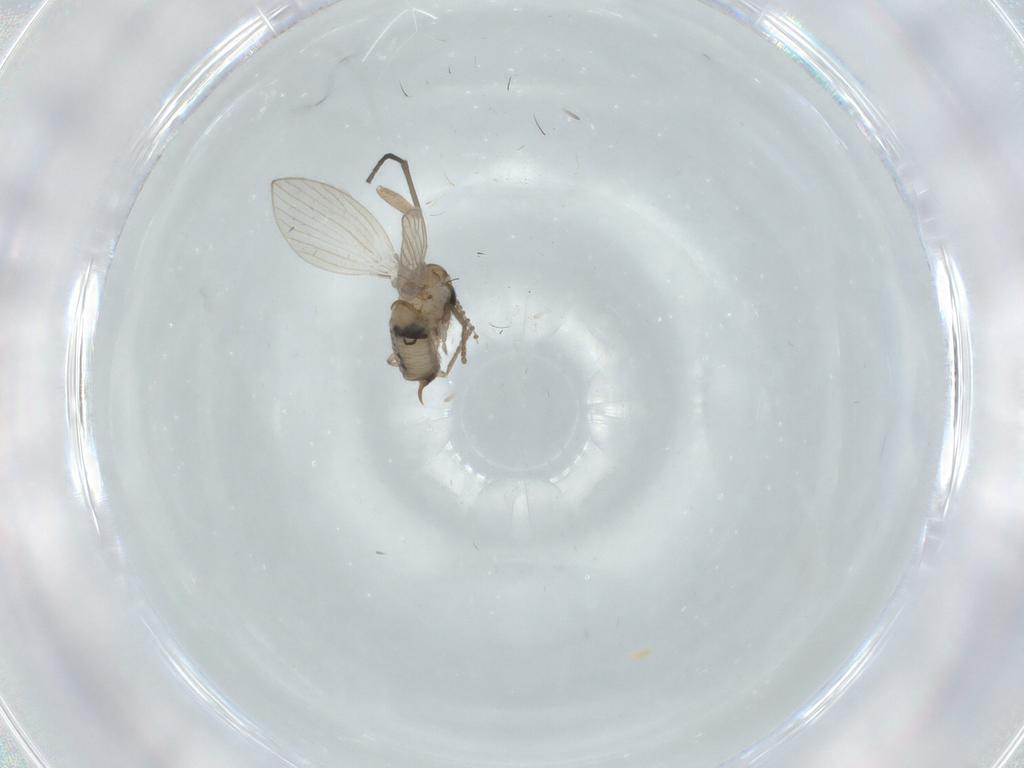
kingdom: Animalia
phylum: Arthropoda
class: Insecta
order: Diptera
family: Psychodidae
